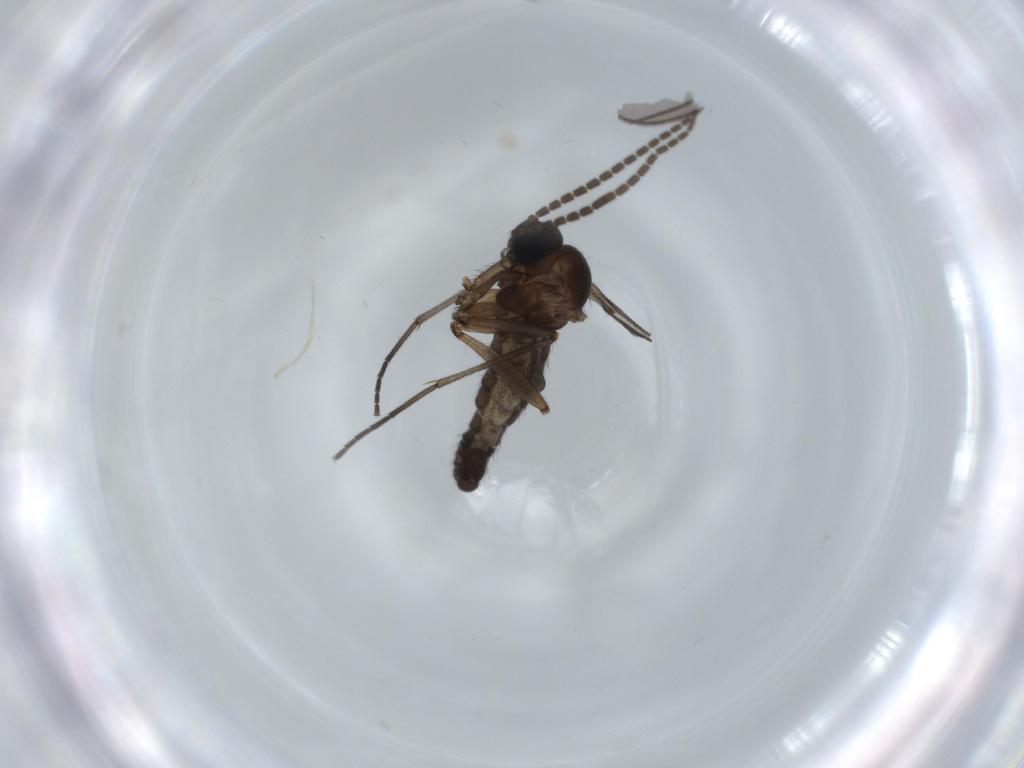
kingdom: Animalia
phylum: Arthropoda
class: Insecta
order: Diptera
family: Sciaridae
